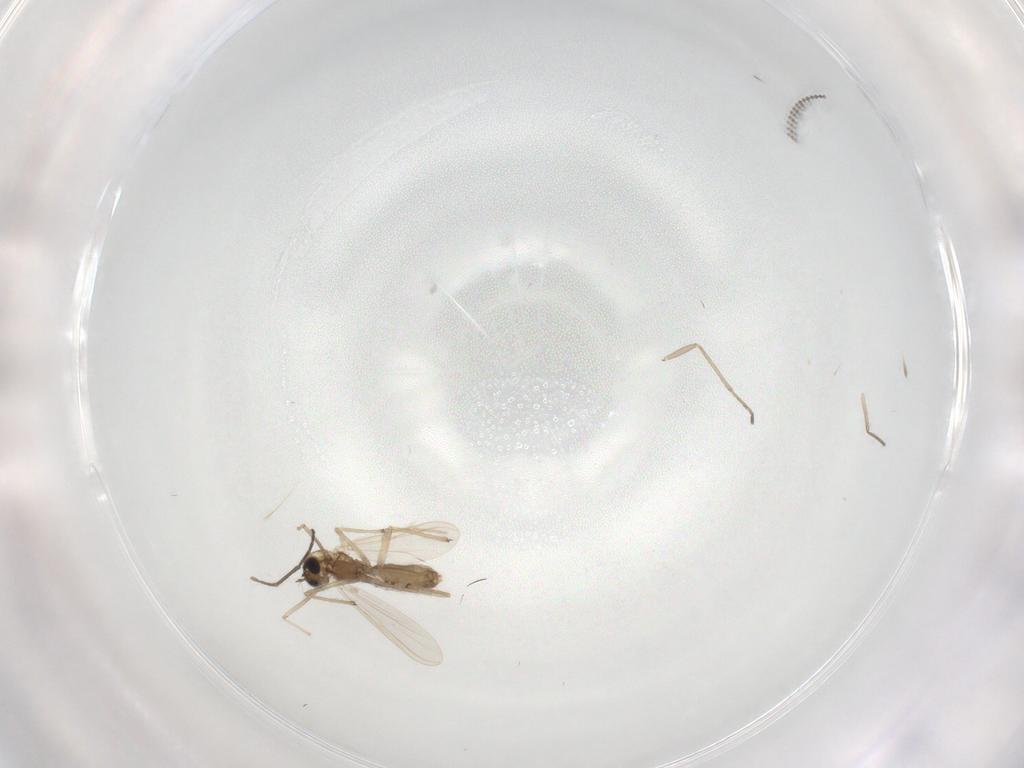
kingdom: Animalia
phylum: Arthropoda
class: Insecta
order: Diptera
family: Chironomidae
